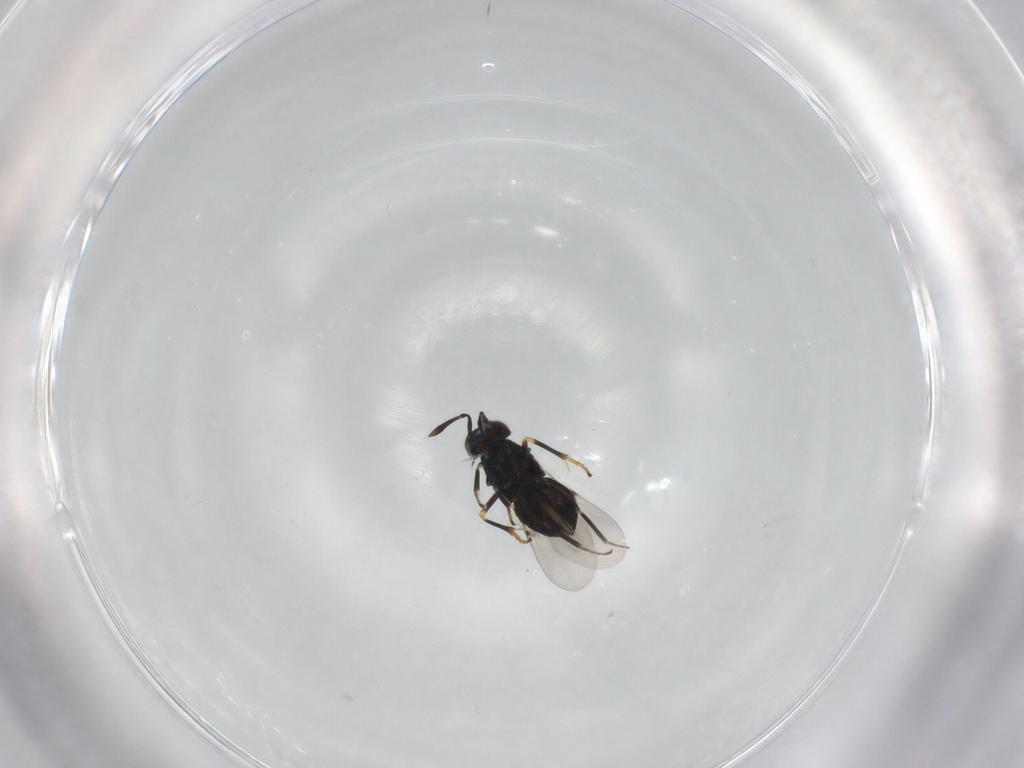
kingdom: Animalia
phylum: Arthropoda
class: Insecta
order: Hymenoptera
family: Encyrtidae
